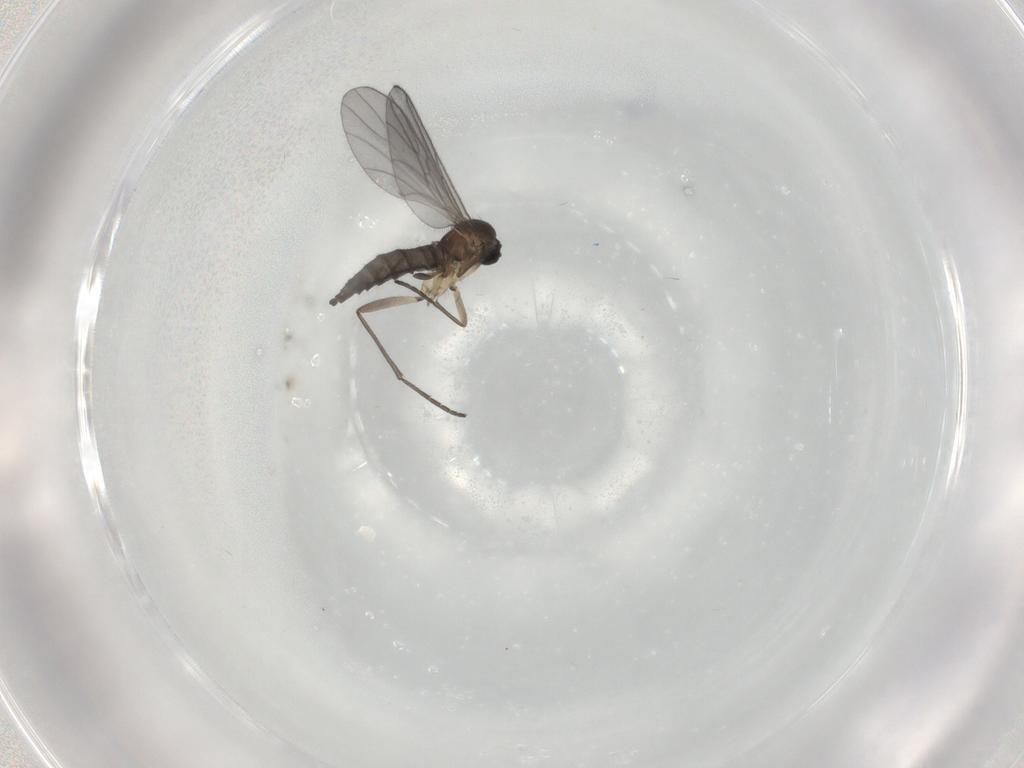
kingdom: Animalia
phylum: Arthropoda
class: Insecta
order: Diptera
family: Sciaridae
